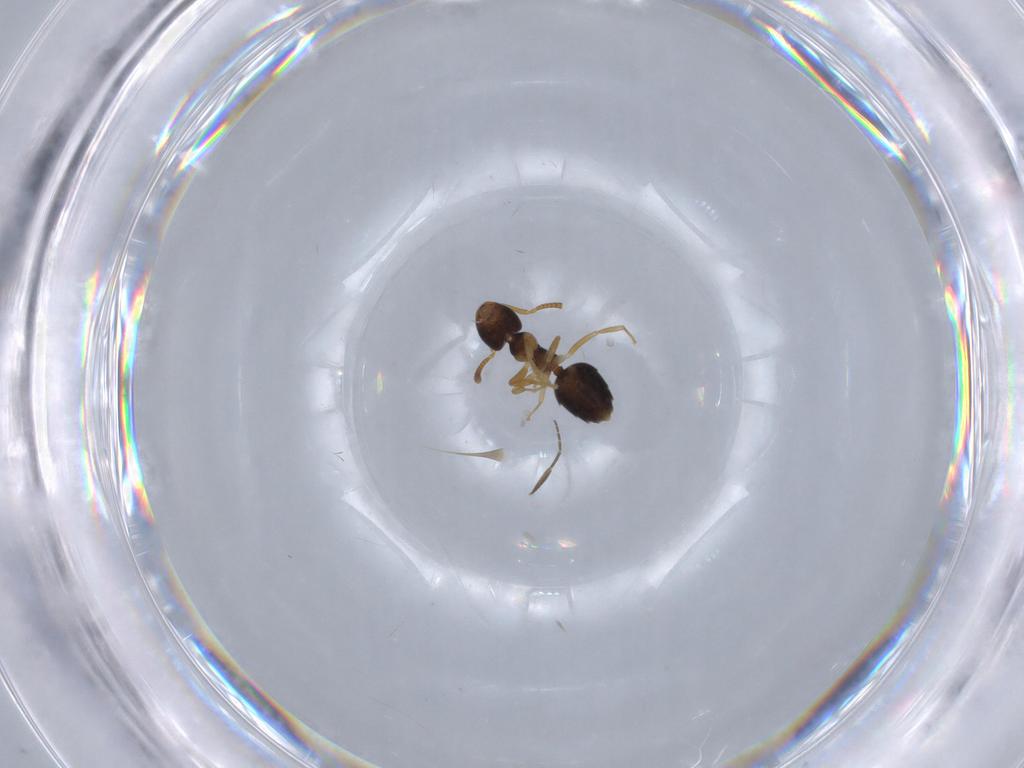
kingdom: Animalia
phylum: Arthropoda
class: Insecta
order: Hymenoptera
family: Formicidae
